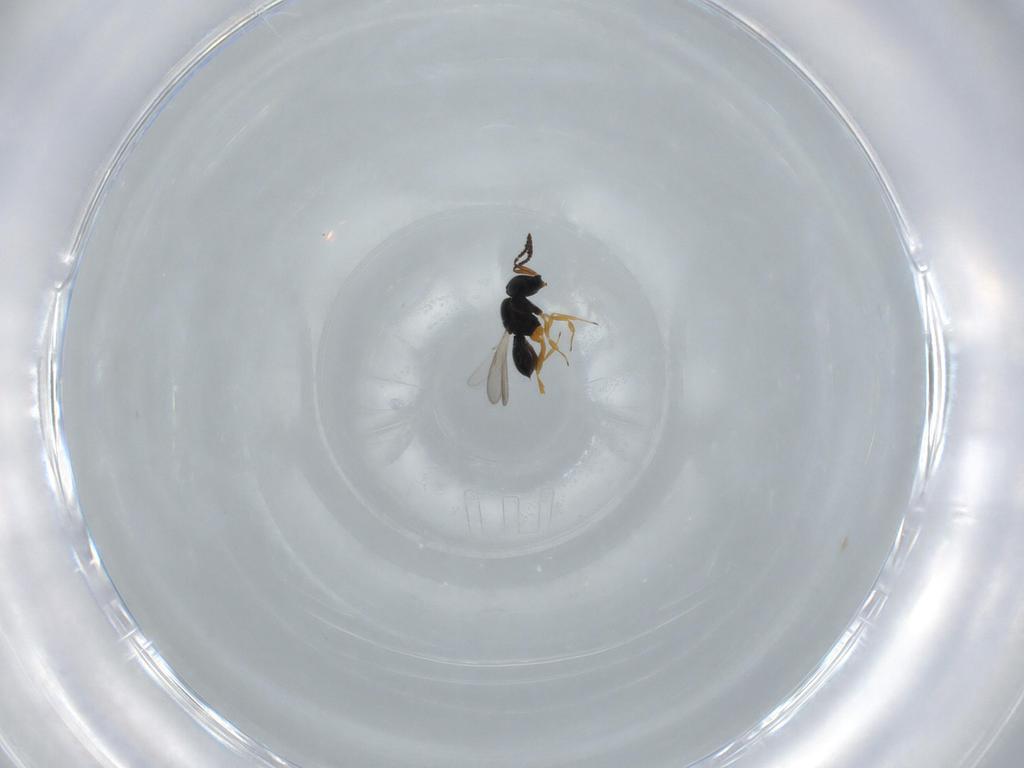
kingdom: Animalia
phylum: Arthropoda
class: Insecta
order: Hymenoptera
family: Scelionidae
